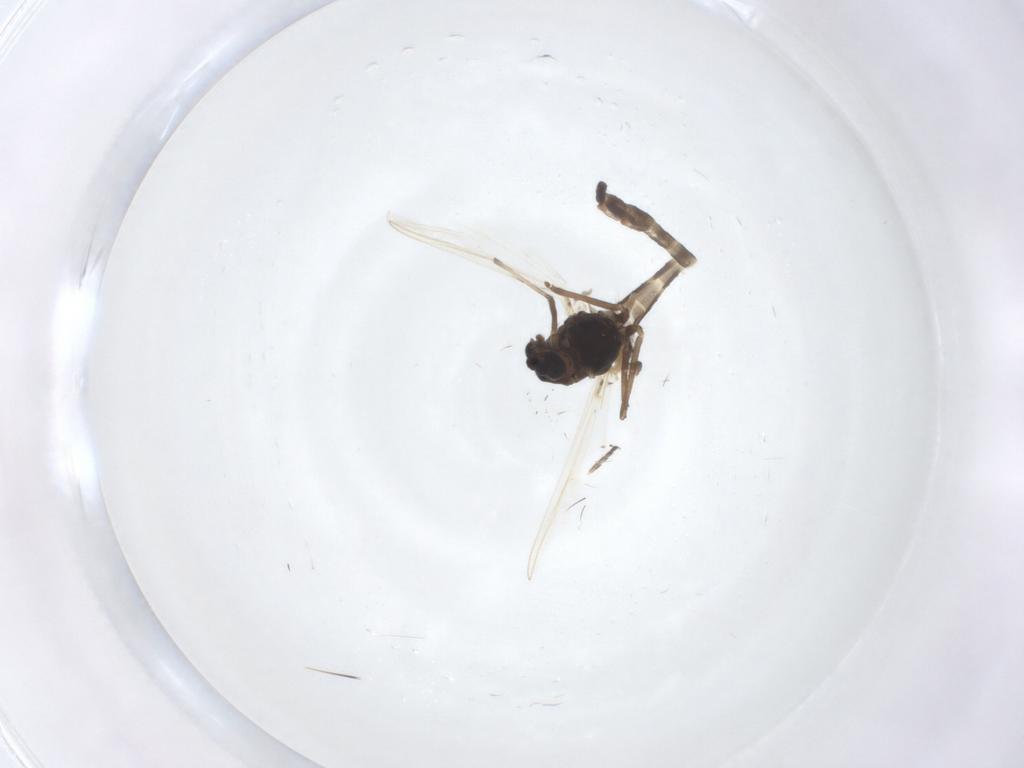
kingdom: Animalia
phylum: Arthropoda
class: Insecta
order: Diptera
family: Chironomidae
